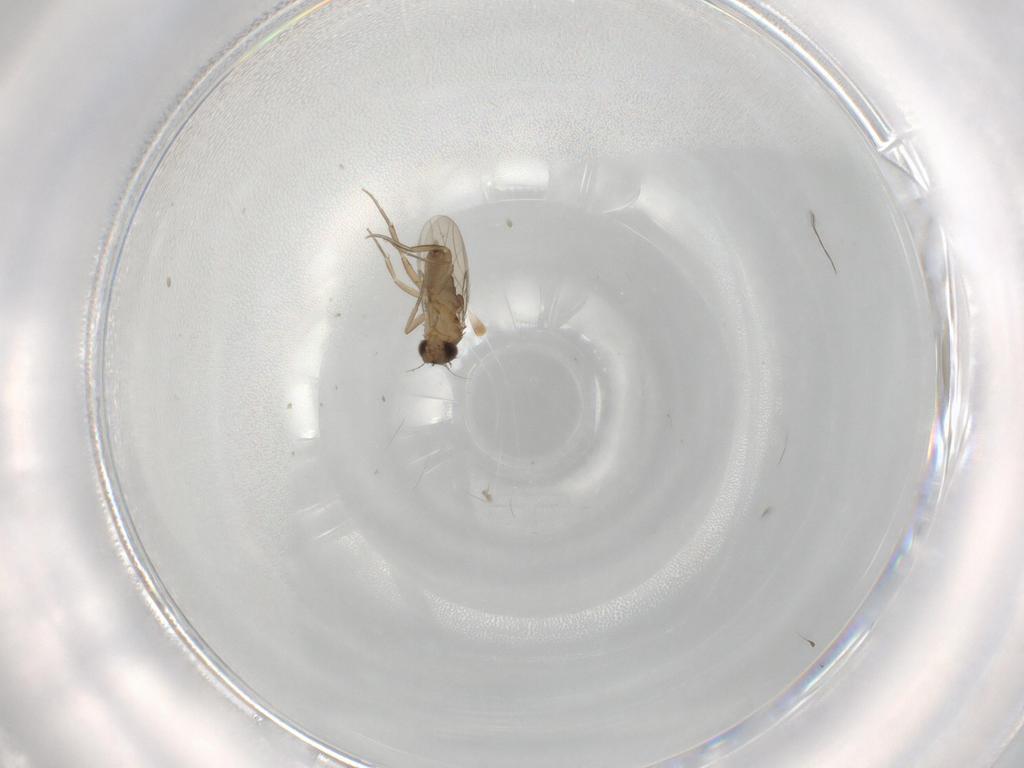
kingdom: Animalia
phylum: Arthropoda
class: Insecta
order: Diptera
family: Phoridae
